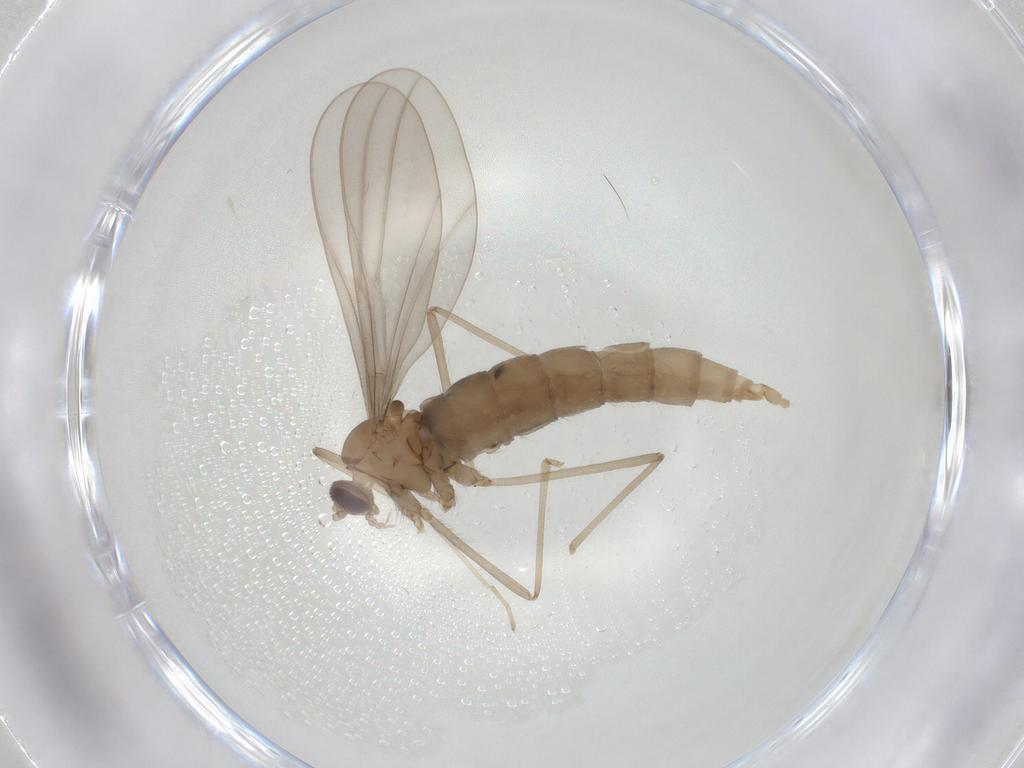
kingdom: Animalia
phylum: Arthropoda
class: Insecta
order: Diptera
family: Cecidomyiidae
